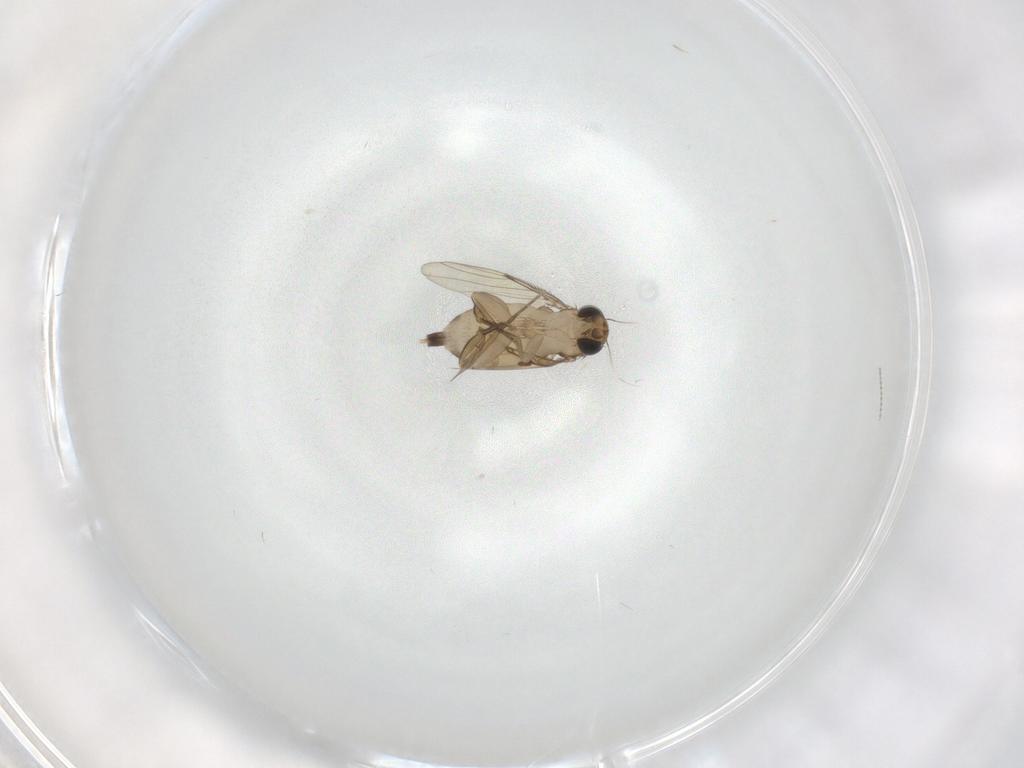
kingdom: Animalia
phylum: Arthropoda
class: Insecta
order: Diptera
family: Phoridae
